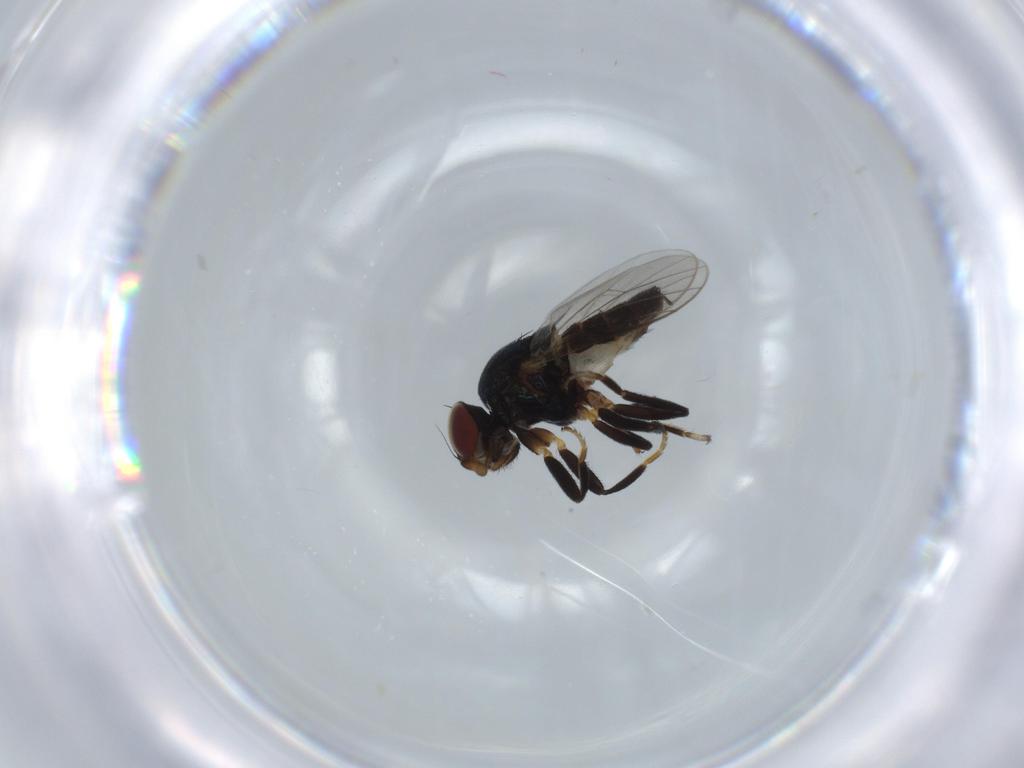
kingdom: Animalia
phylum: Arthropoda
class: Insecta
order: Diptera
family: Chloropidae
